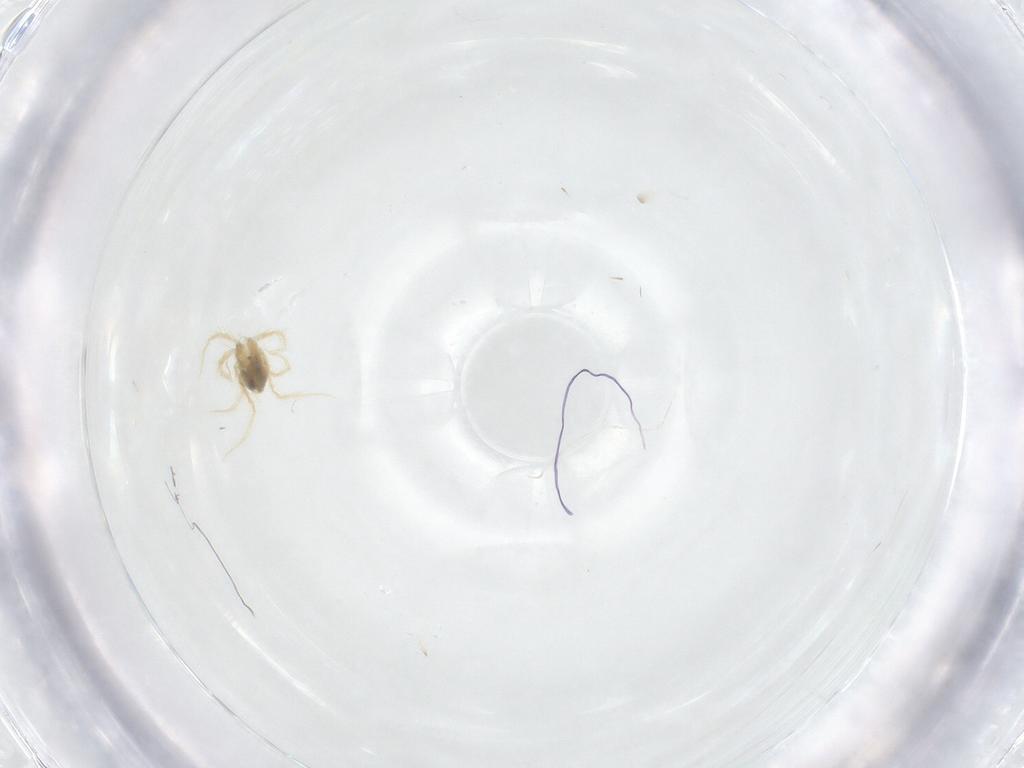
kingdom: Animalia
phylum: Arthropoda
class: Arachnida
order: Trombidiformes
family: Anystidae
